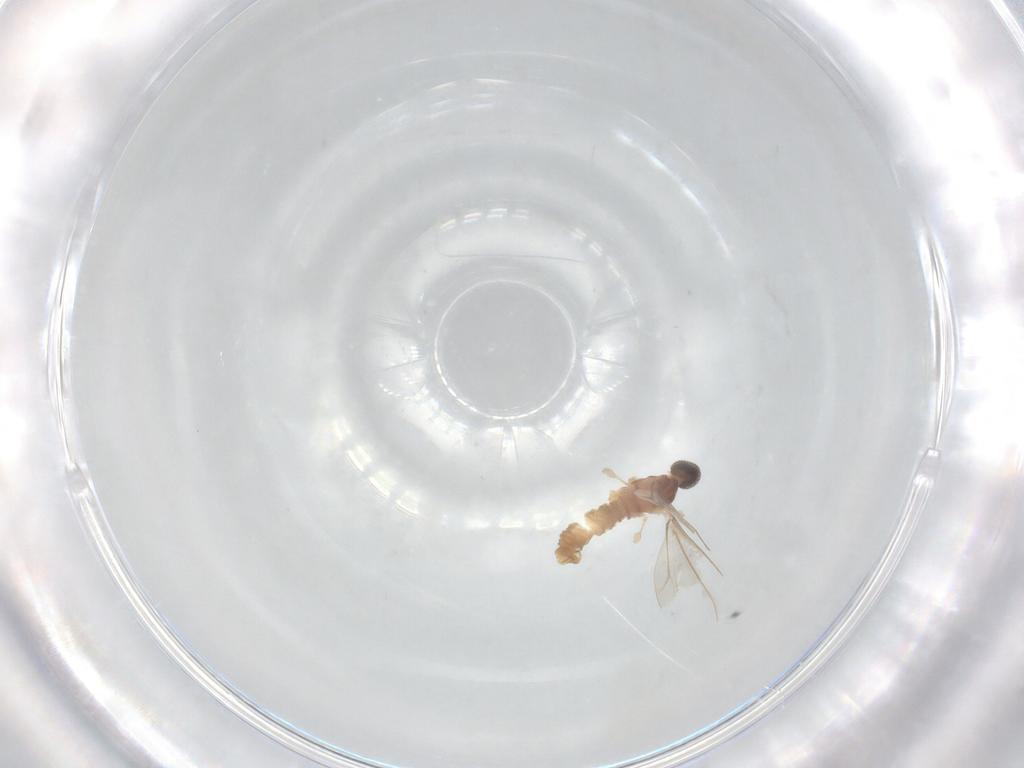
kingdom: Animalia
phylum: Arthropoda
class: Insecta
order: Diptera
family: Cecidomyiidae
